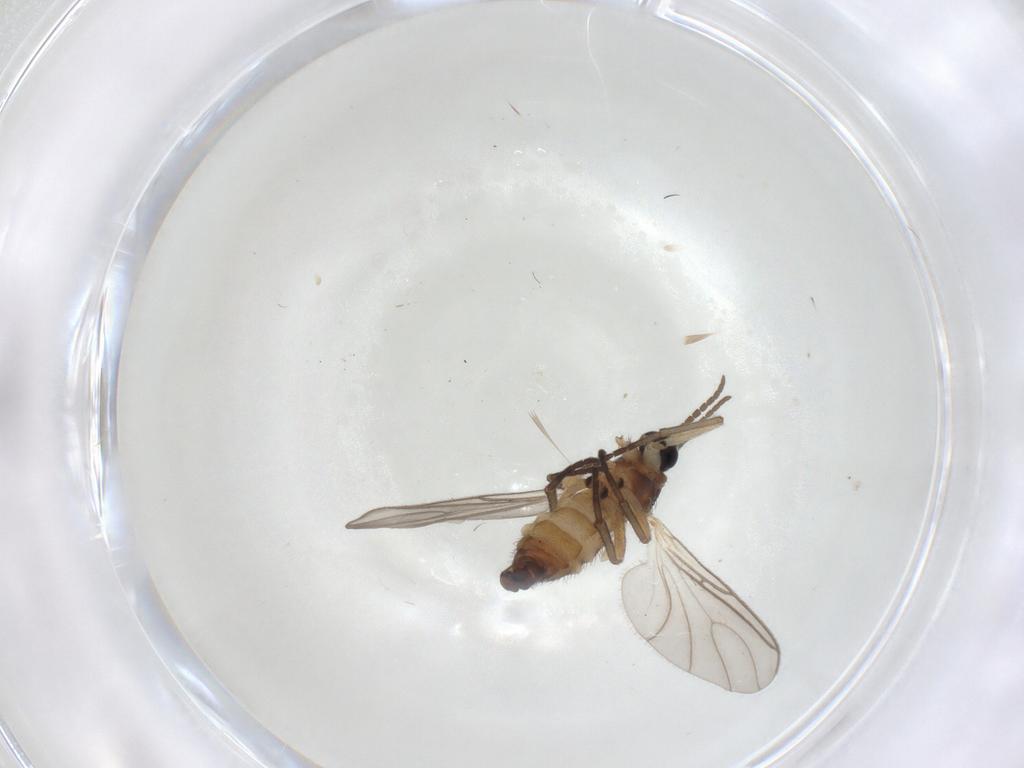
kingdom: Animalia
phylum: Arthropoda
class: Insecta
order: Diptera
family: Sciaridae
